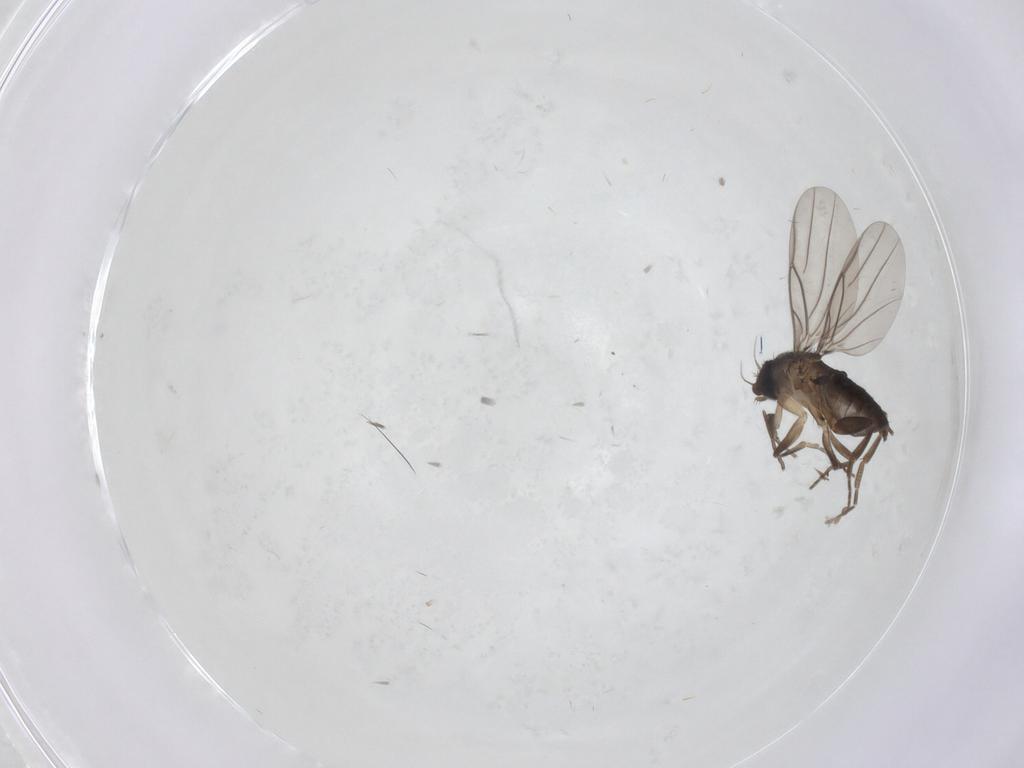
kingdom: Animalia
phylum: Arthropoda
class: Insecta
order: Diptera
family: Phoridae
